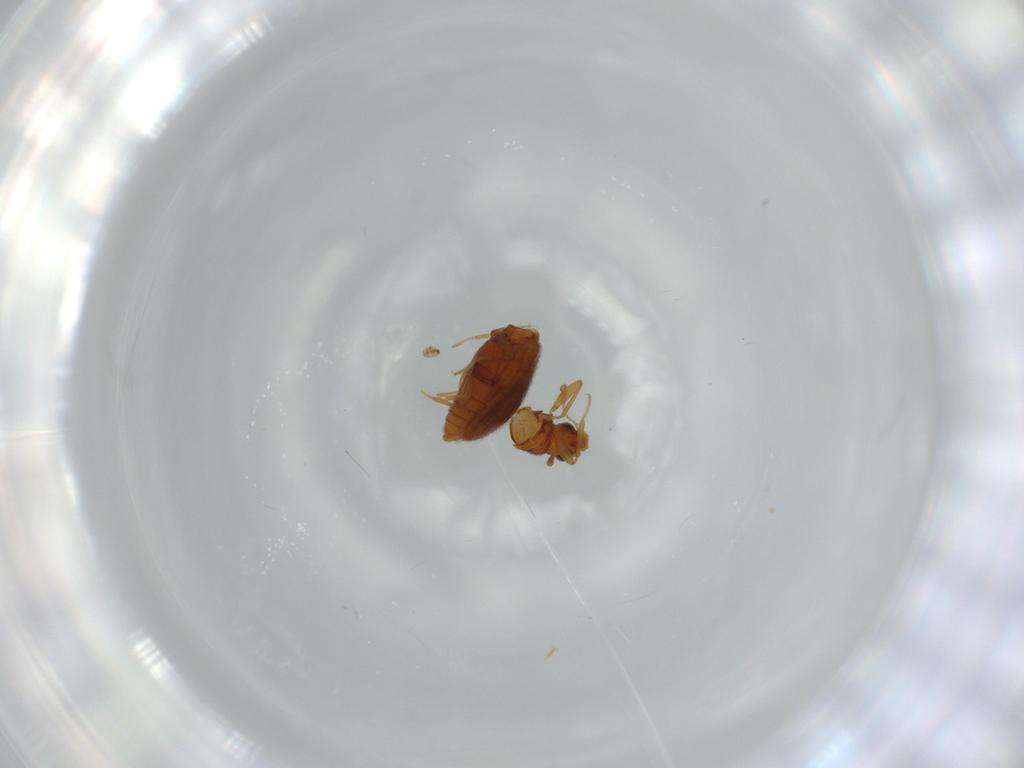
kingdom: Animalia
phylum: Arthropoda
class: Insecta
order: Coleoptera
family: Latridiidae
